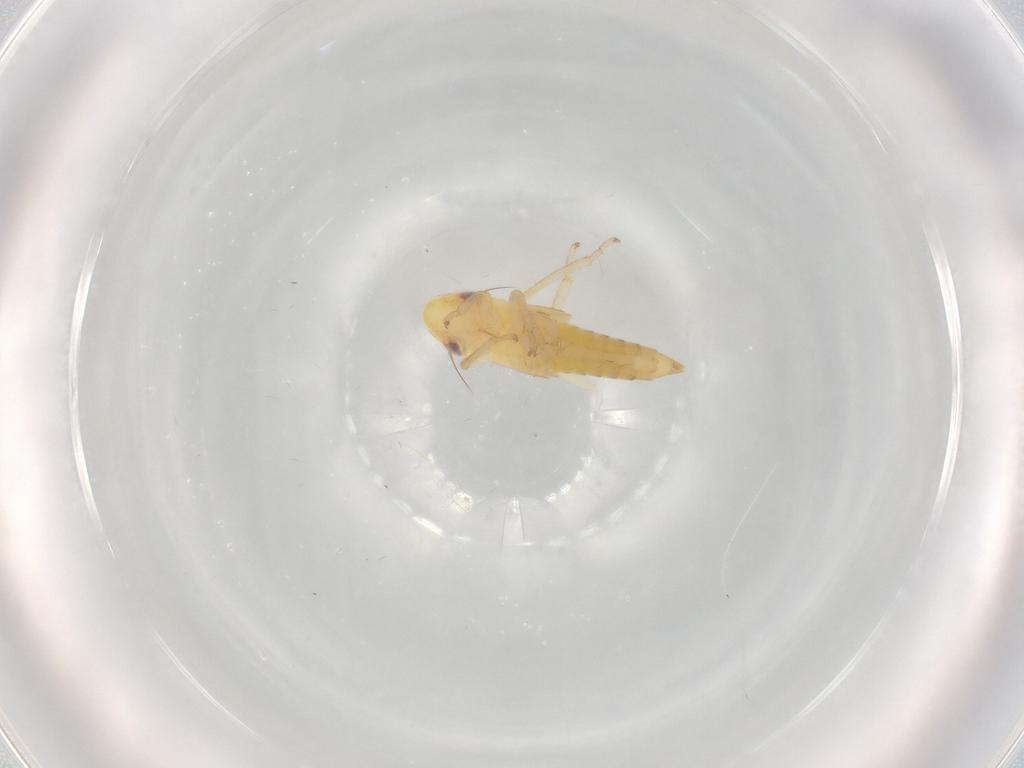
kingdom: Animalia
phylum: Arthropoda
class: Insecta
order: Hemiptera
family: Cicadellidae
